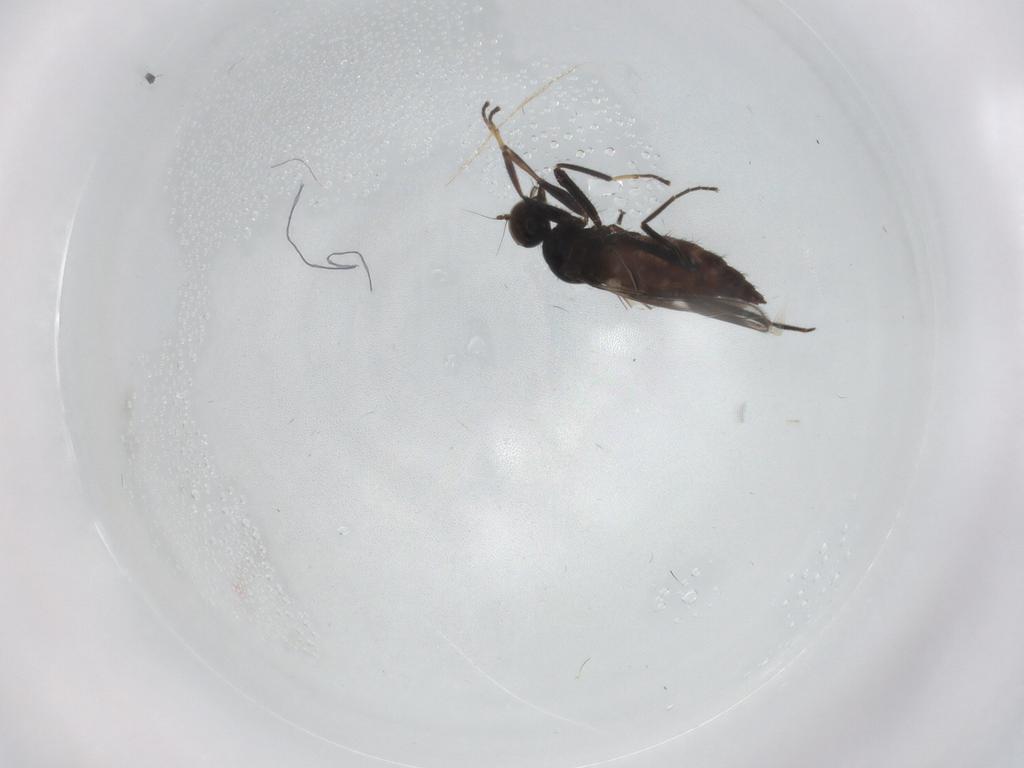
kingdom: Animalia
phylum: Arthropoda
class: Insecta
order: Diptera
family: Hybotidae
